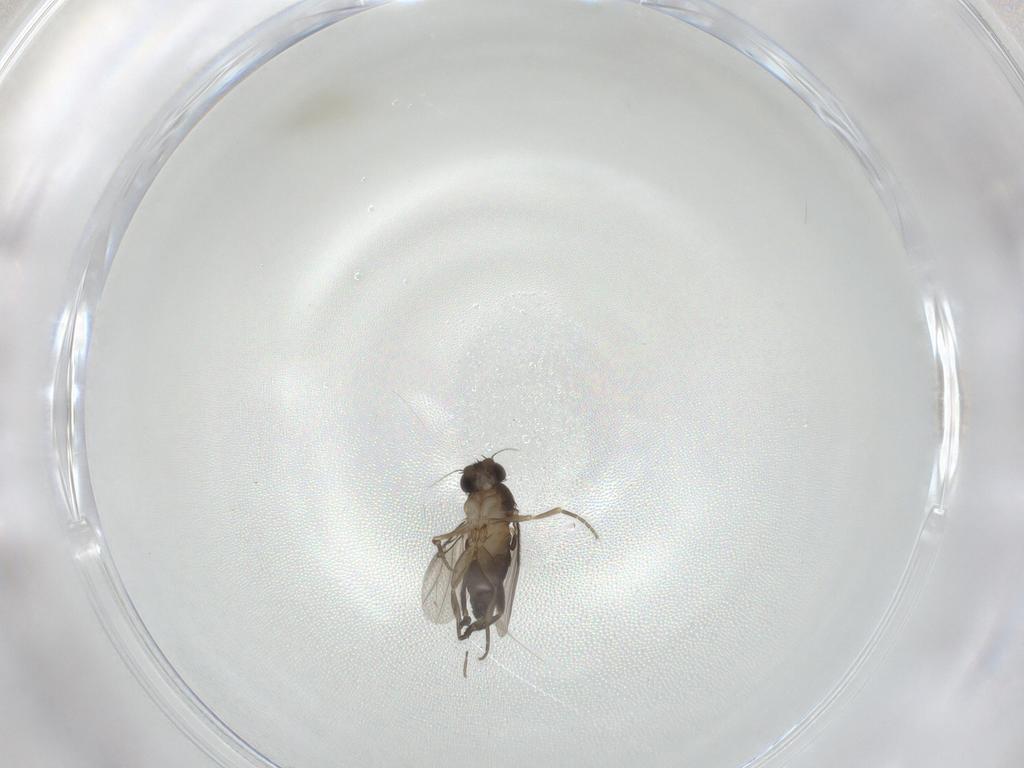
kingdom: Animalia
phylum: Arthropoda
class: Insecta
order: Diptera
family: Phoridae
